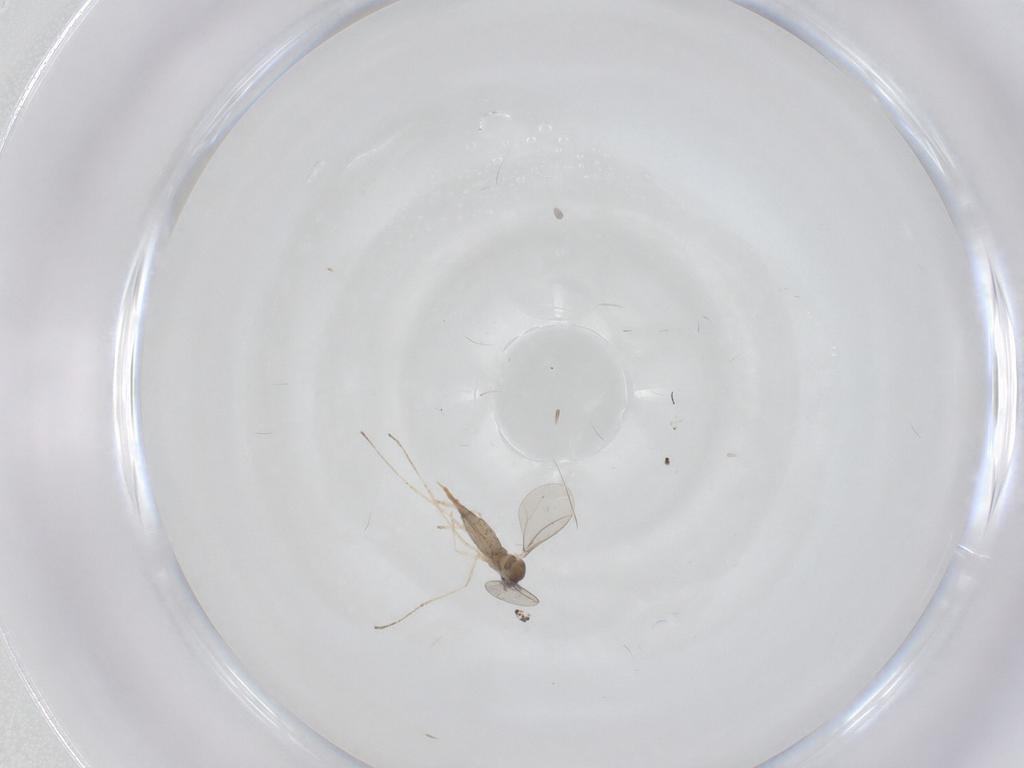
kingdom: Animalia
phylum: Arthropoda
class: Insecta
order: Diptera
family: Cecidomyiidae
